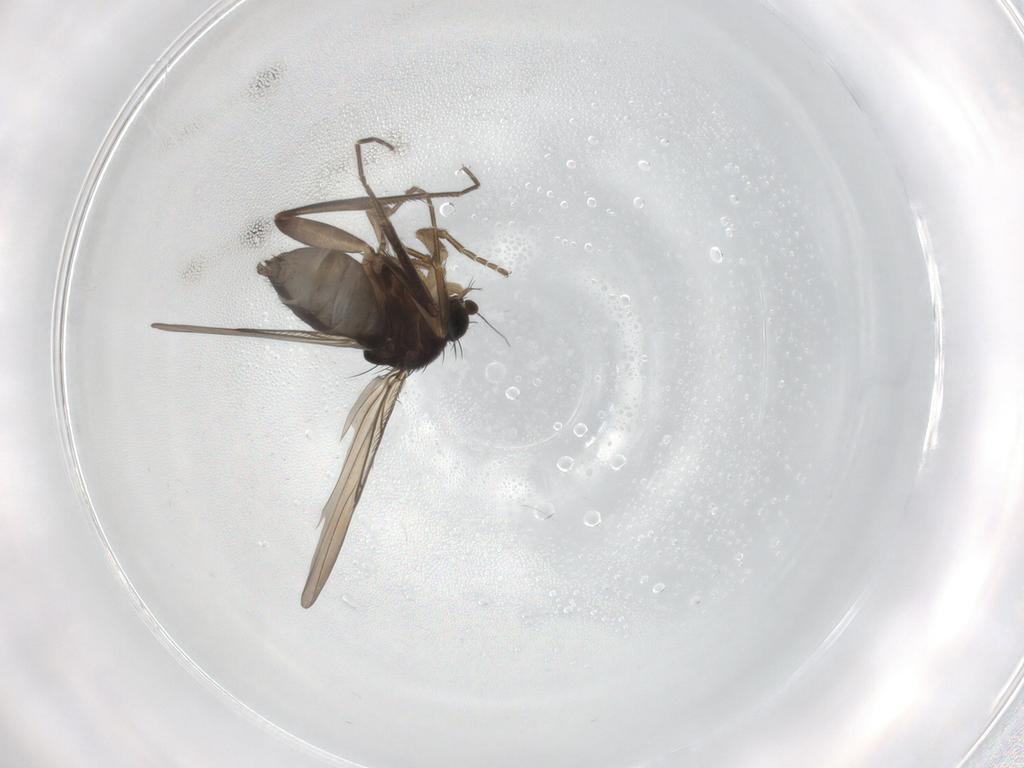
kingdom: Animalia
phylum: Arthropoda
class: Insecta
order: Diptera
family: Phoridae
